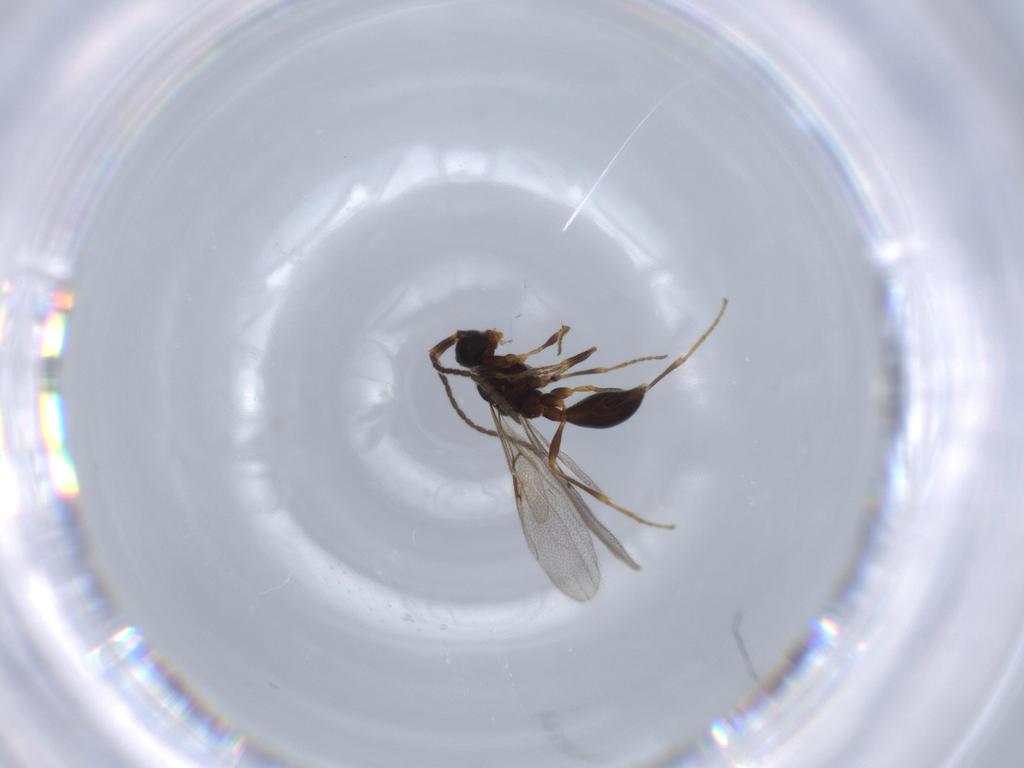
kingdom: Animalia
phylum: Arthropoda
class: Insecta
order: Hymenoptera
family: Diapriidae
